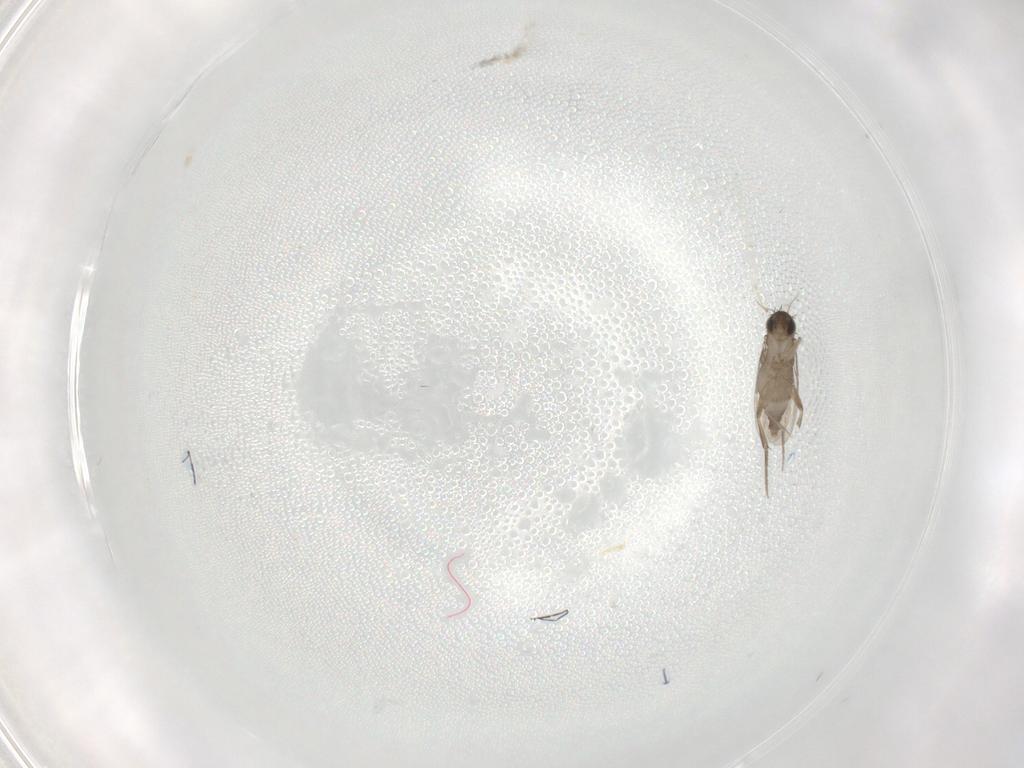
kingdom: Animalia
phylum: Arthropoda
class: Insecta
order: Diptera
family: Phoridae
